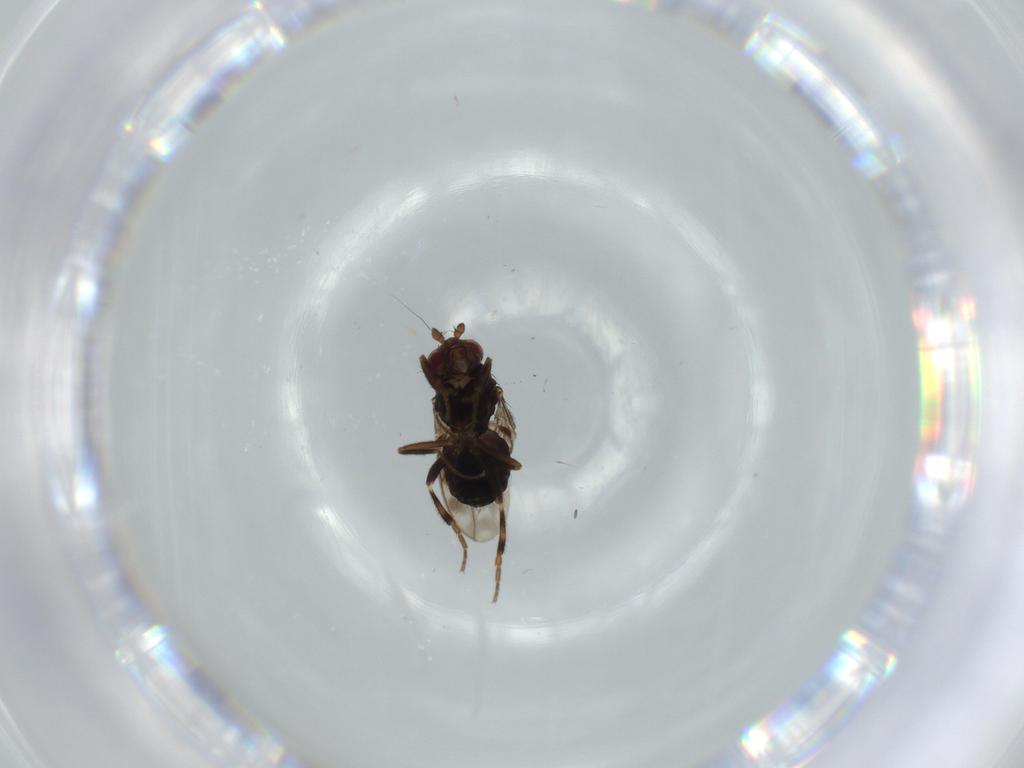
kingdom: Animalia
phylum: Arthropoda
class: Insecta
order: Diptera
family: Sphaeroceridae
